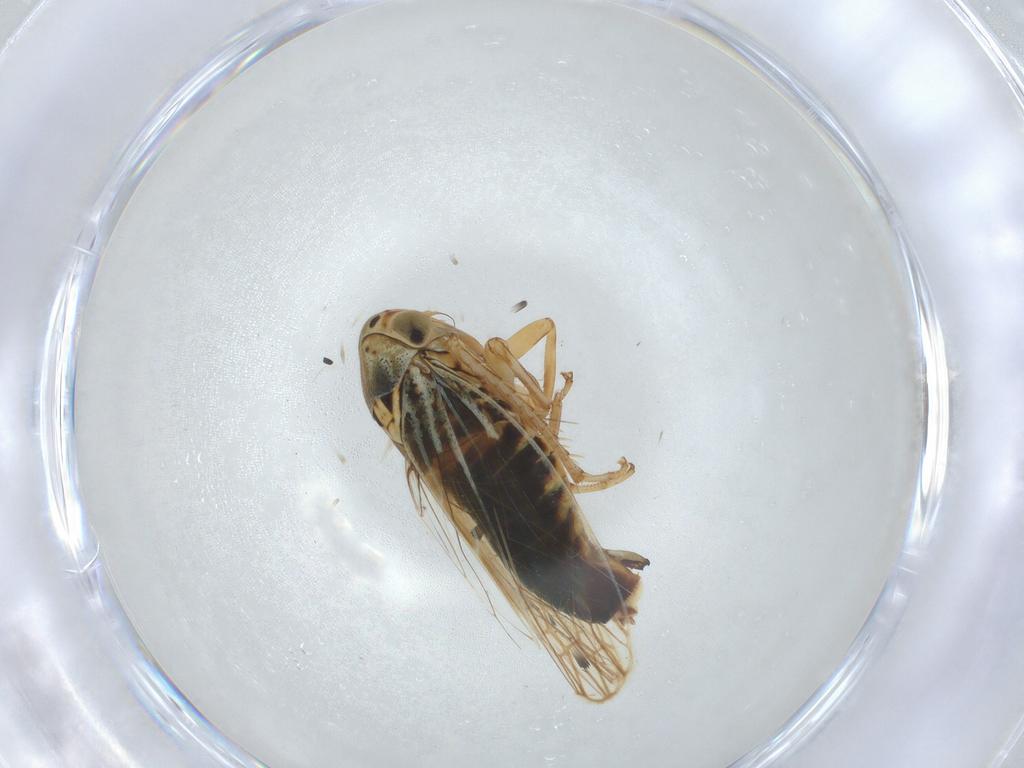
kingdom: Animalia
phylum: Arthropoda
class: Insecta
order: Hemiptera
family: Cicadellidae
